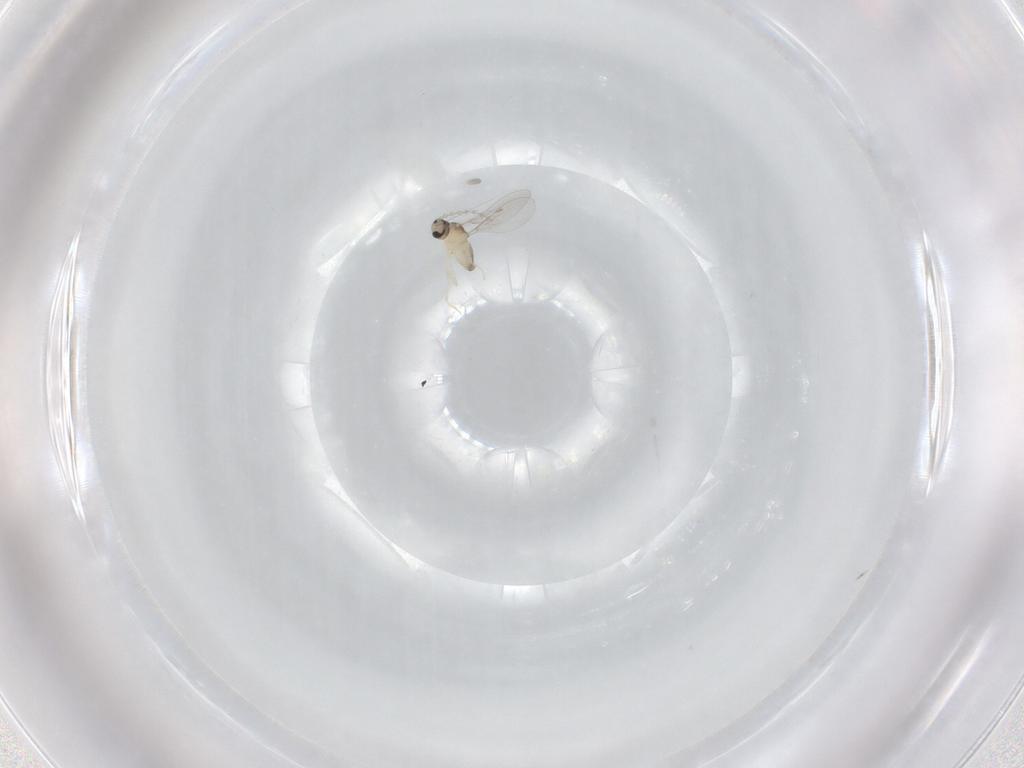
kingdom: Animalia
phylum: Arthropoda
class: Insecta
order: Diptera
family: Cecidomyiidae
